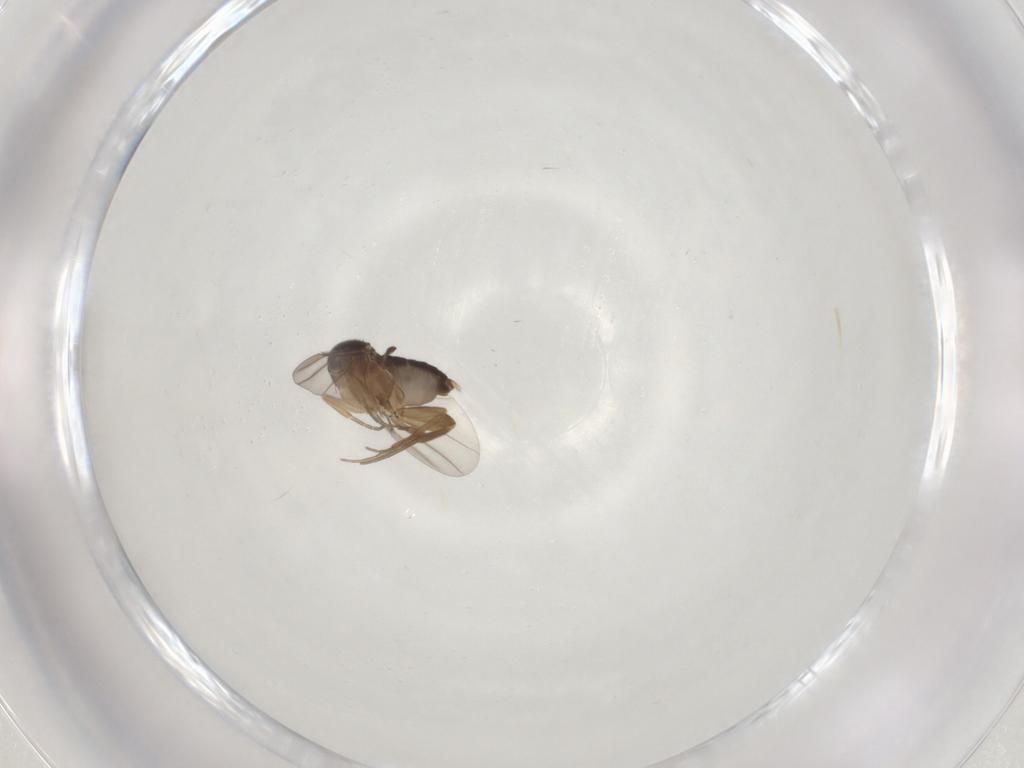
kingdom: Animalia
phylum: Arthropoda
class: Insecta
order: Diptera
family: Phoridae
